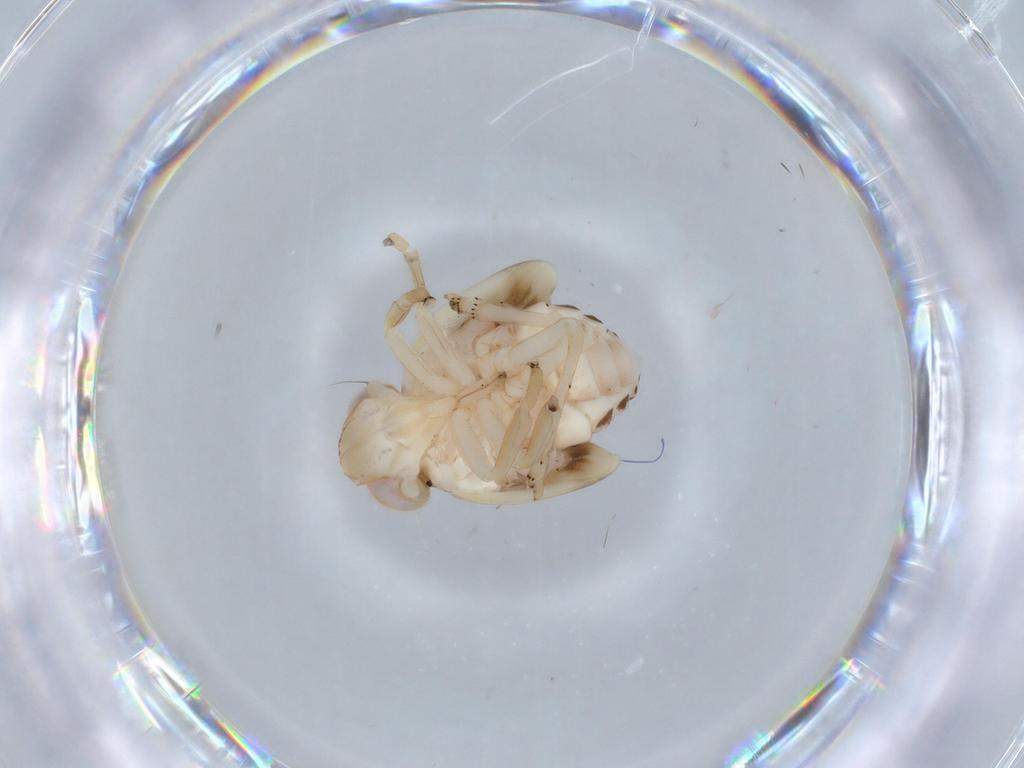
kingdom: Animalia
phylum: Arthropoda
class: Insecta
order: Hemiptera
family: Nogodinidae
